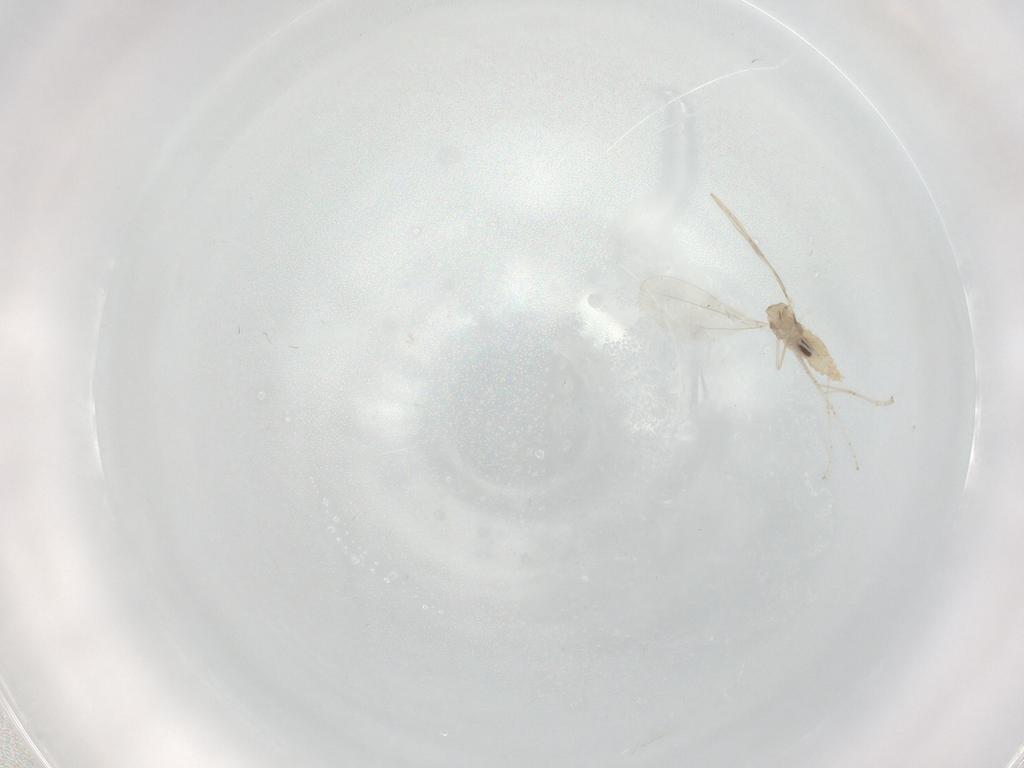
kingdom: Animalia
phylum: Arthropoda
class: Insecta
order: Diptera
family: Cecidomyiidae
